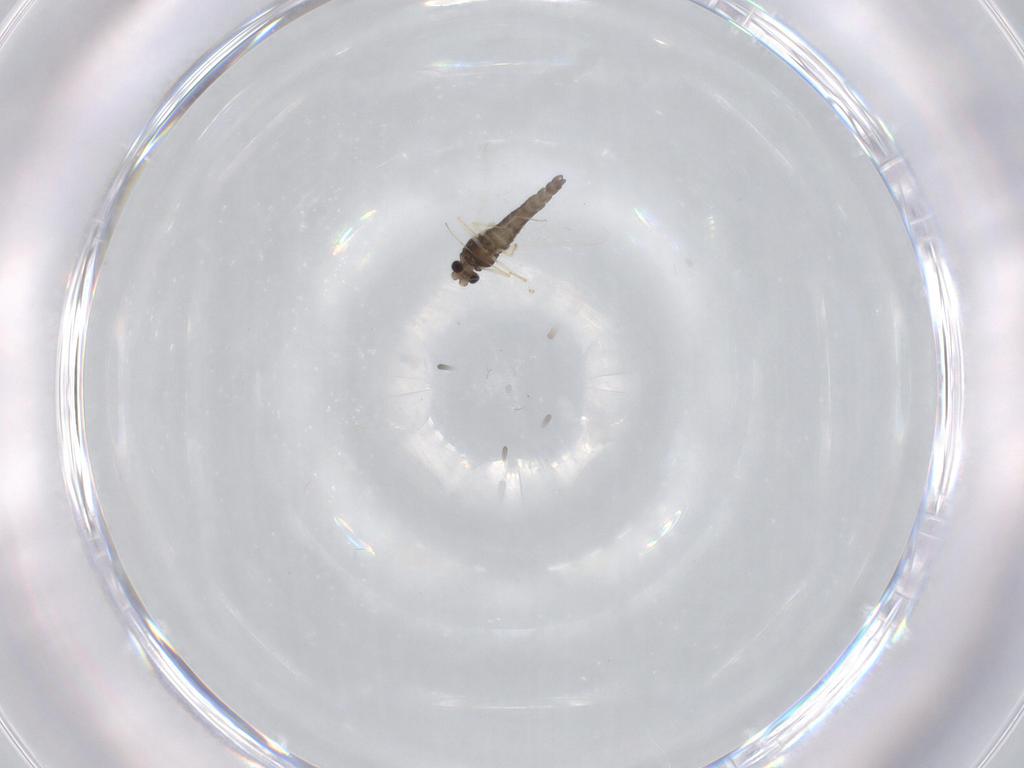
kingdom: Animalia
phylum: Arthropoda
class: Insecta
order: Diptera
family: Chironomidae
